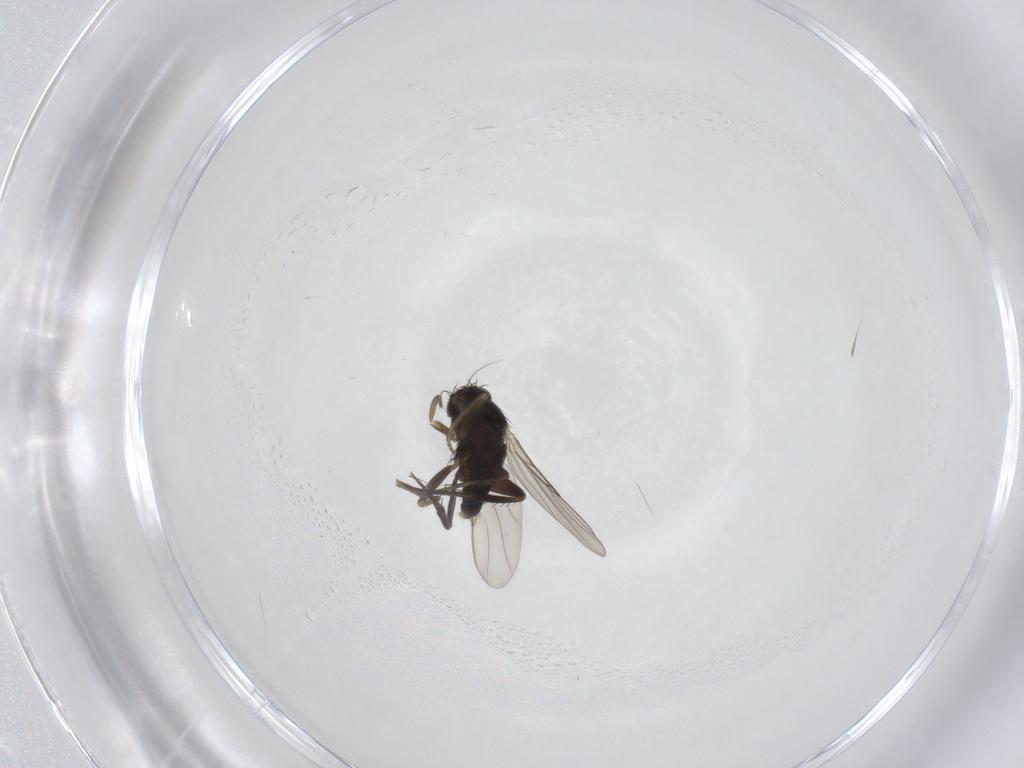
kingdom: Animalia
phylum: Arthropoda
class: Insecta
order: Diptera
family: Phoridae
